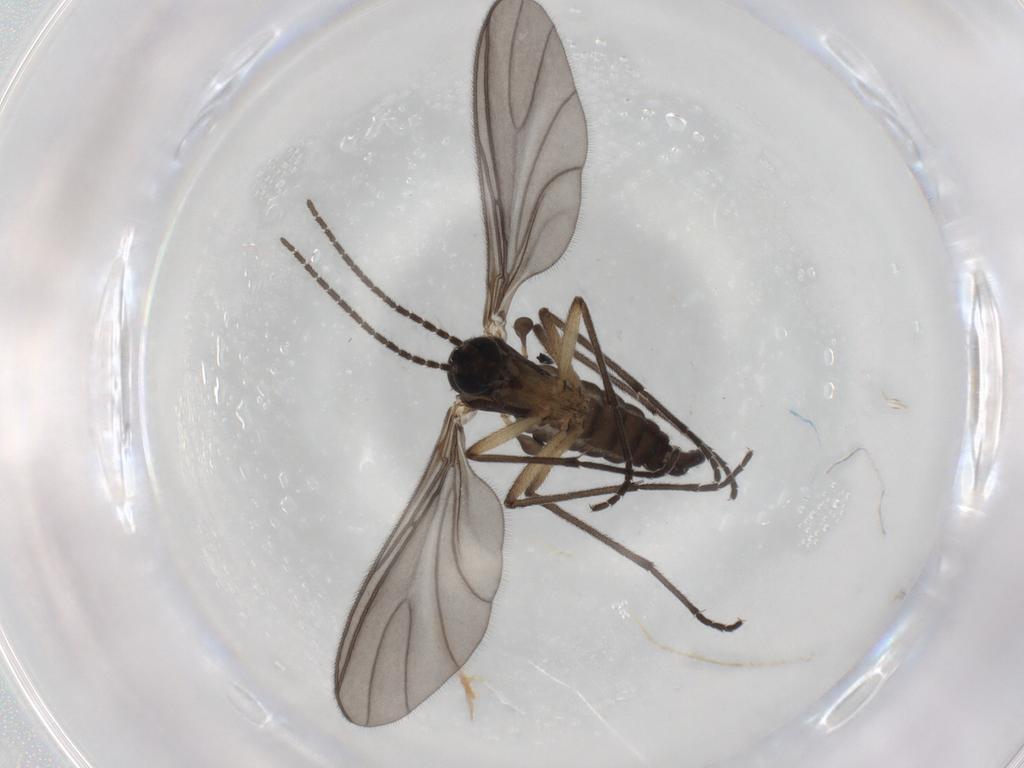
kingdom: Animalia
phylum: Arthropoda
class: Insecta
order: Diptera
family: Sciaridae
